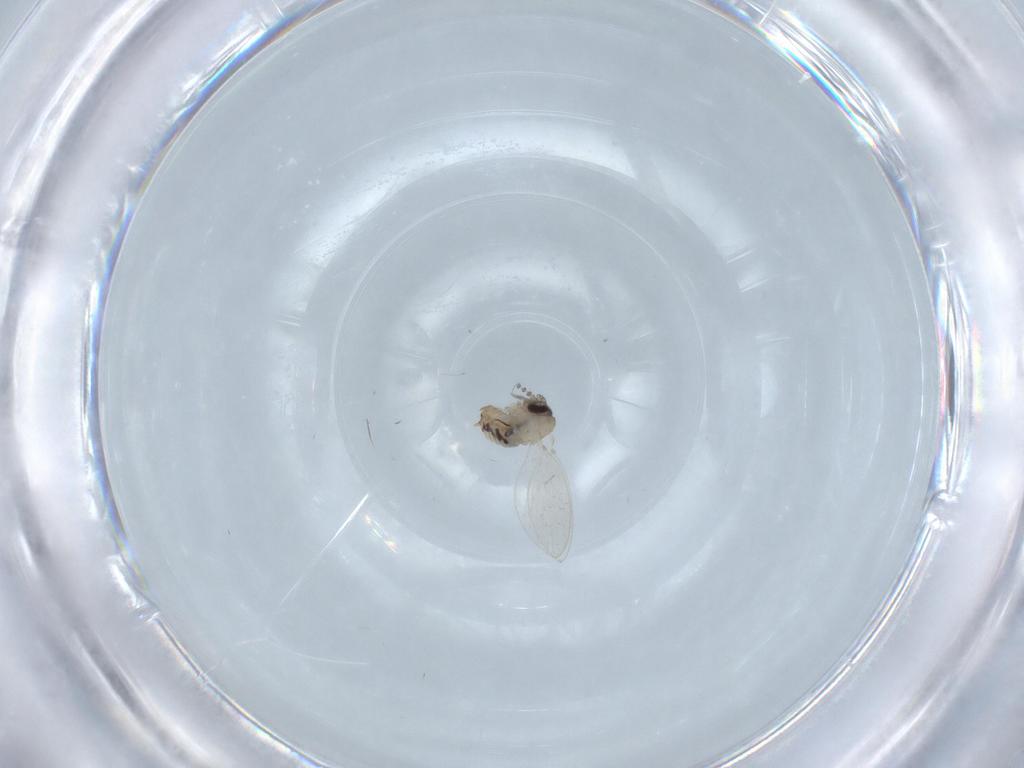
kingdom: Animalia
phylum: Arthropoda
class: Insecta
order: Diptera
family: Psychodidae
